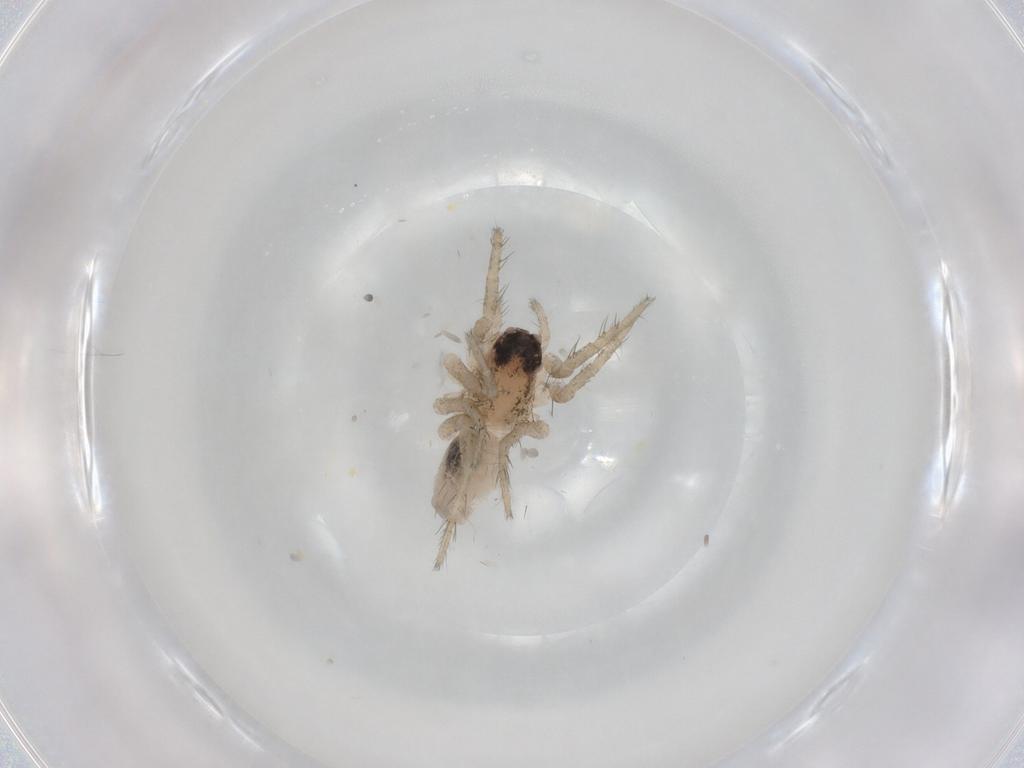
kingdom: Animalia
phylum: Arthropoda
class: Arachnida
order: Araneae
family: Lycosidae
